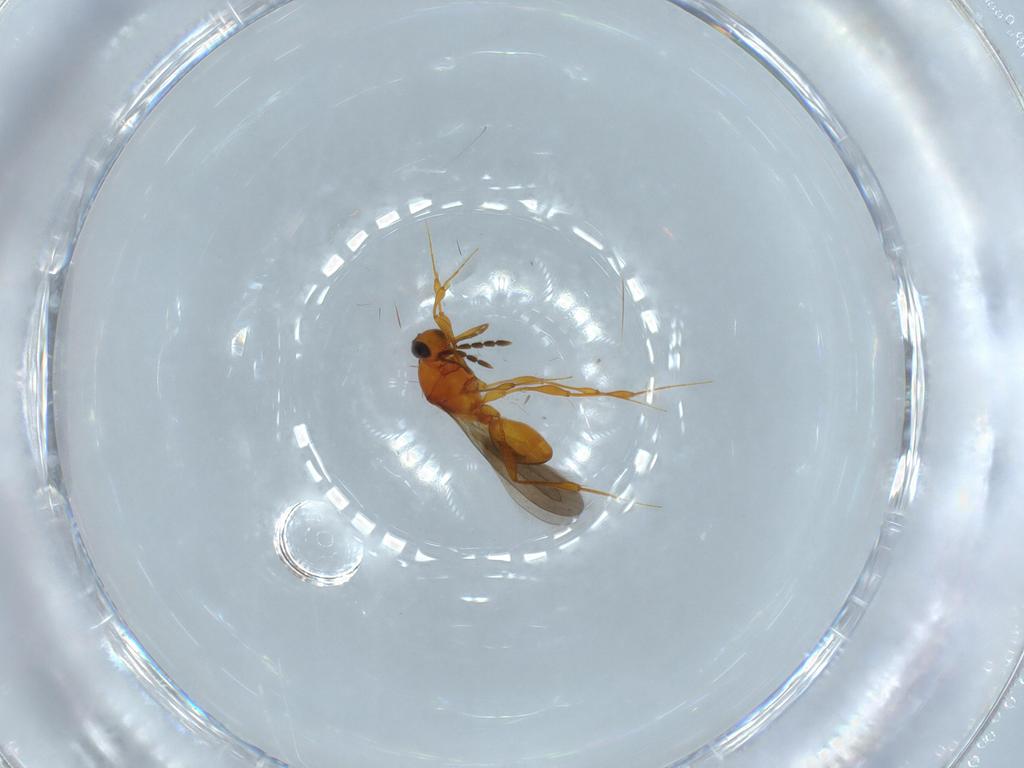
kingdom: Animalia
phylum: Arthropoda
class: Insecta
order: Hymenoptera
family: Platygastridae
